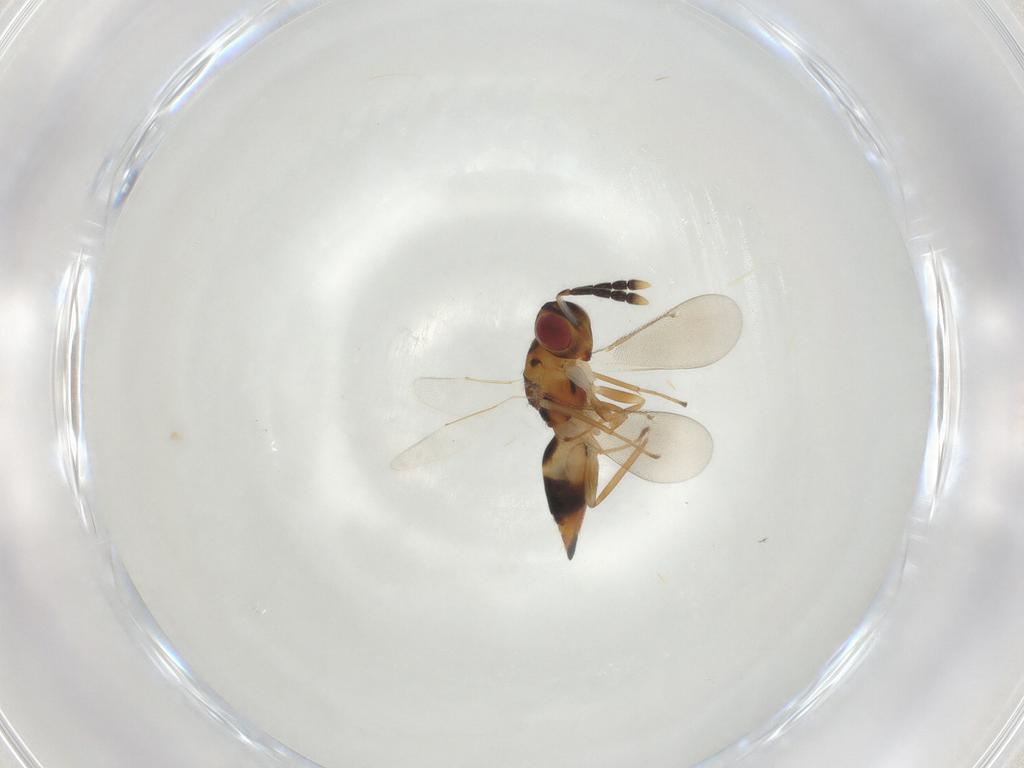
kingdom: Animalia
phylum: Arthropoda
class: Insecta
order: Hymenoptera
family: Eulophidae
